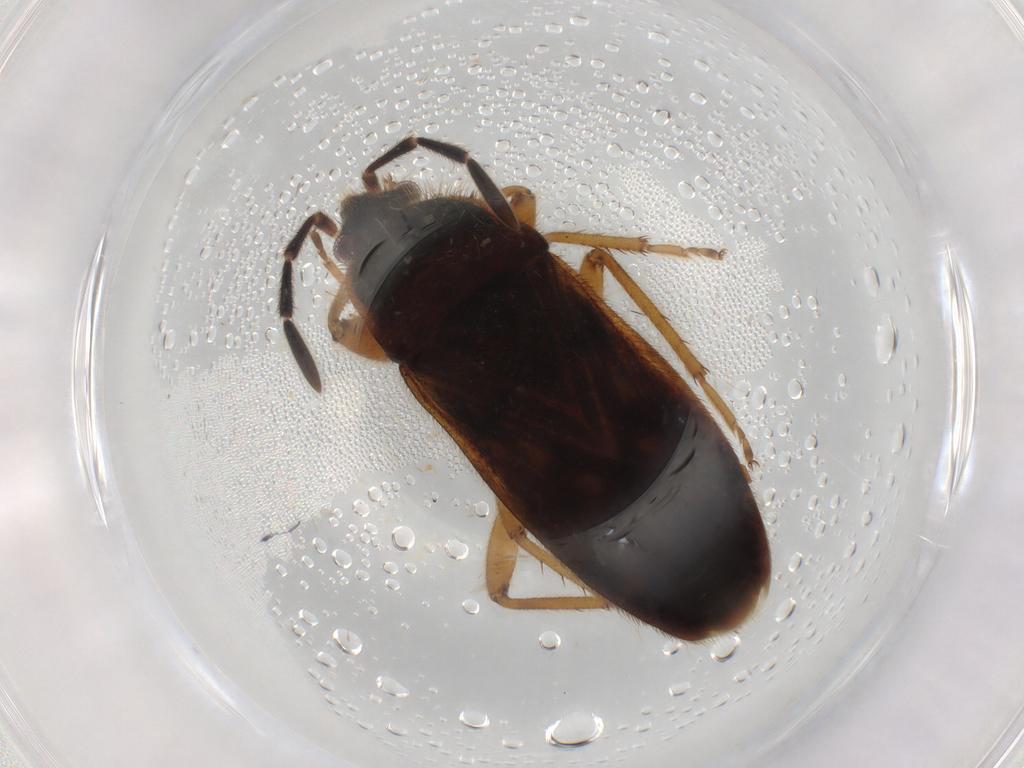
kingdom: Animalia
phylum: Arthropoda
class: Insecta
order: Hemiptera
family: Rhyparochromidae
